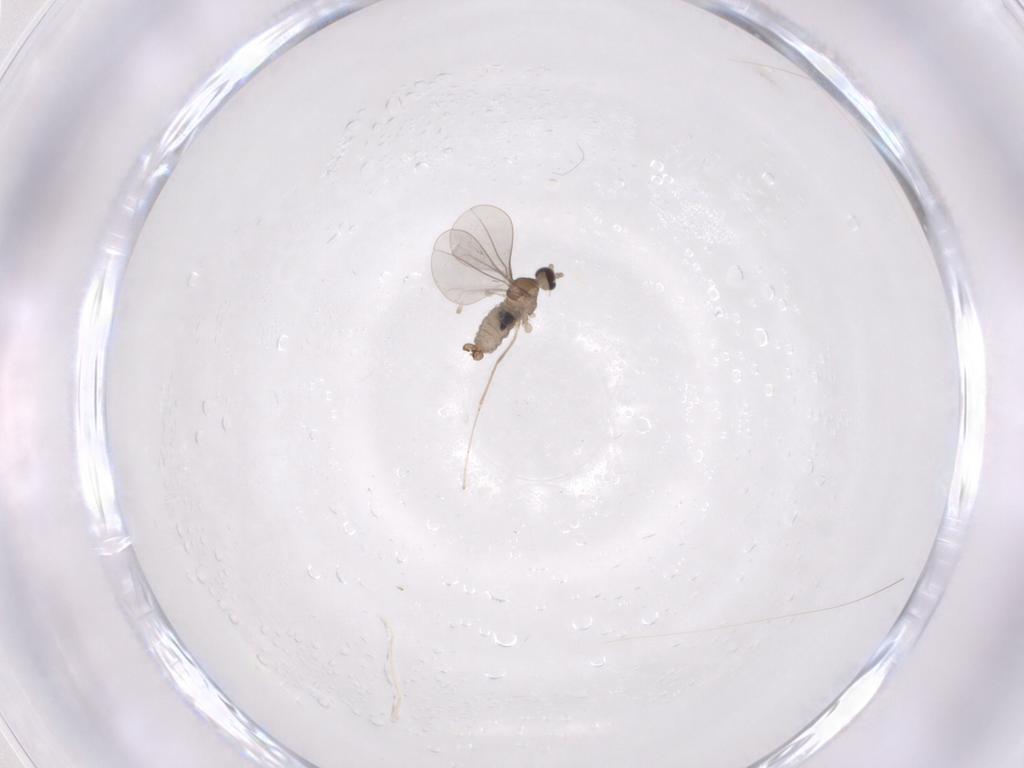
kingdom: Animalia
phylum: Arthropoda
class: Insecta
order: Diptera
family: Cecidomyiidae
